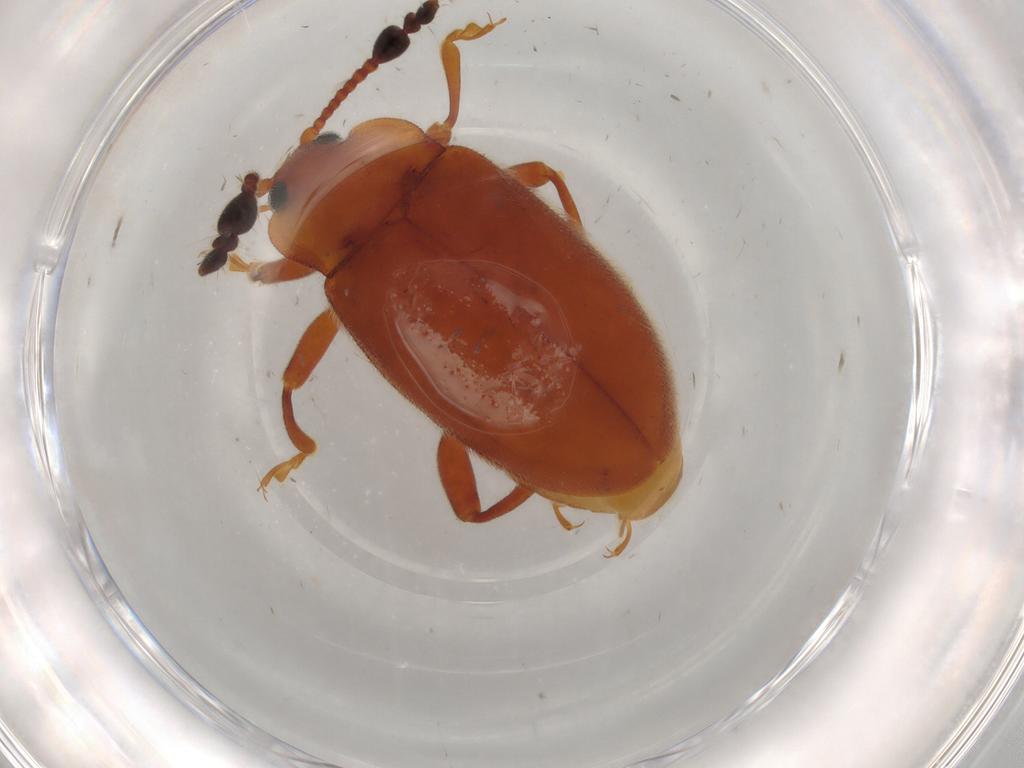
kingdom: Animalia
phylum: Arthropoda
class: Insecta
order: Coleoptera
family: Endomychidae
